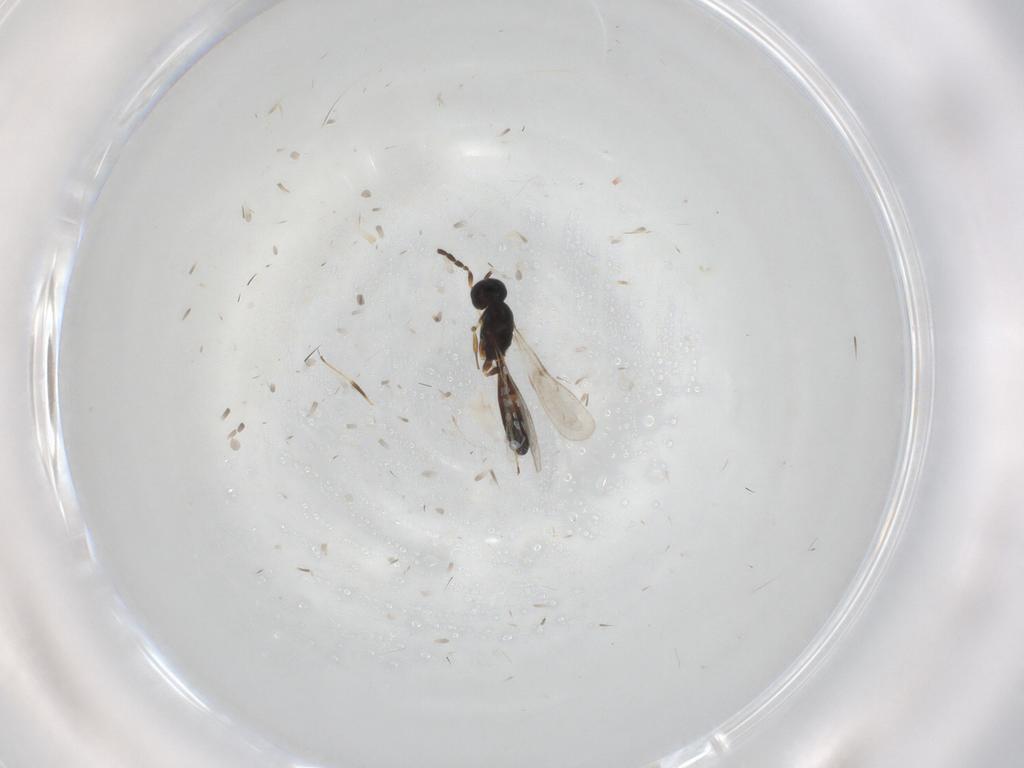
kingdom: Animalia
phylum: Arthropoda
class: Insecta
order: Hymenoptera
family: Scelionidae
